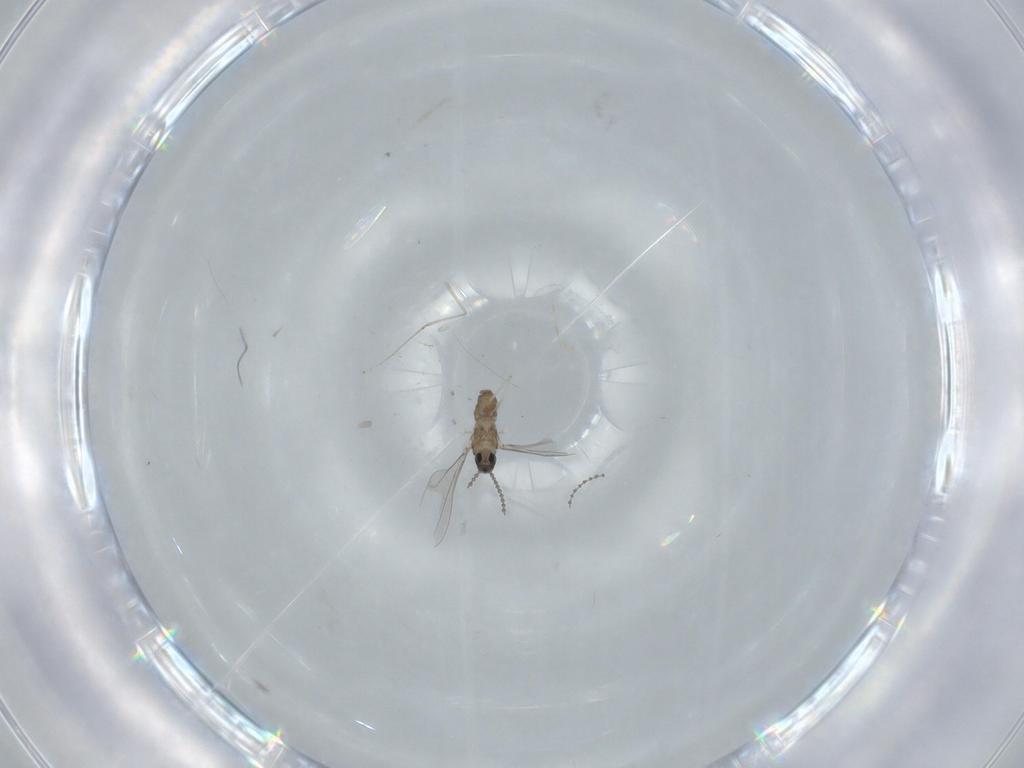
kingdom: Animalia
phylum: Arthropoda
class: Insecta
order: Diptera
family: Cecidomyiidae
